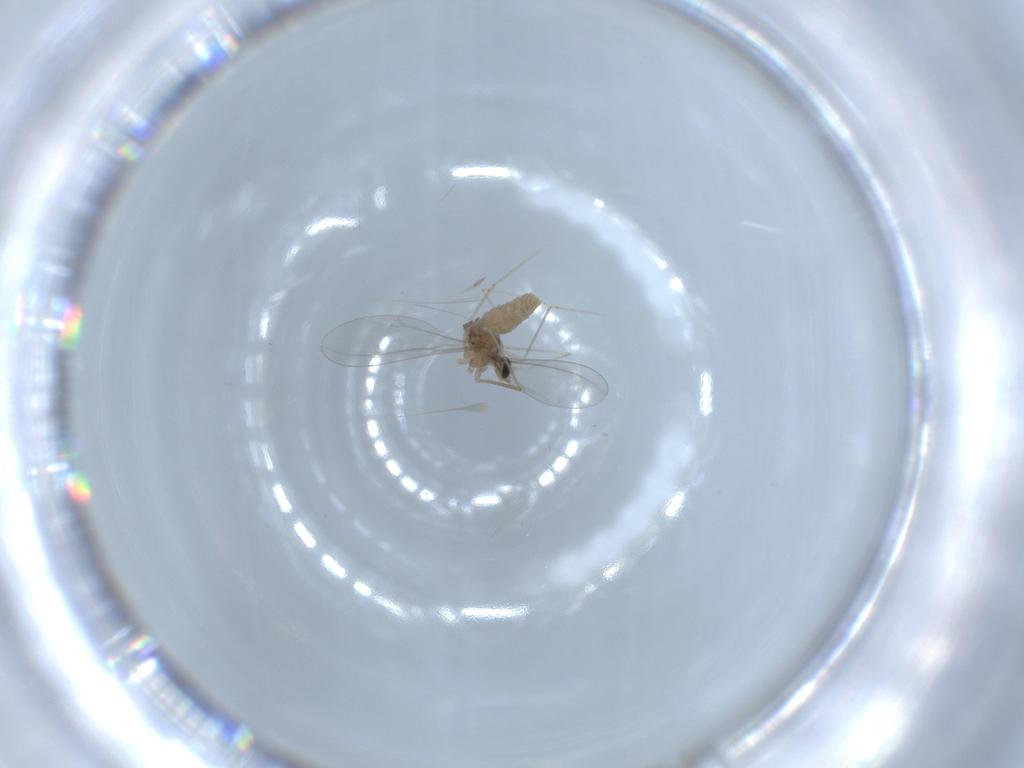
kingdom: Animalia
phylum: Arthropoda
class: Insecta
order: Diptera
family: Cecidomyiidae
